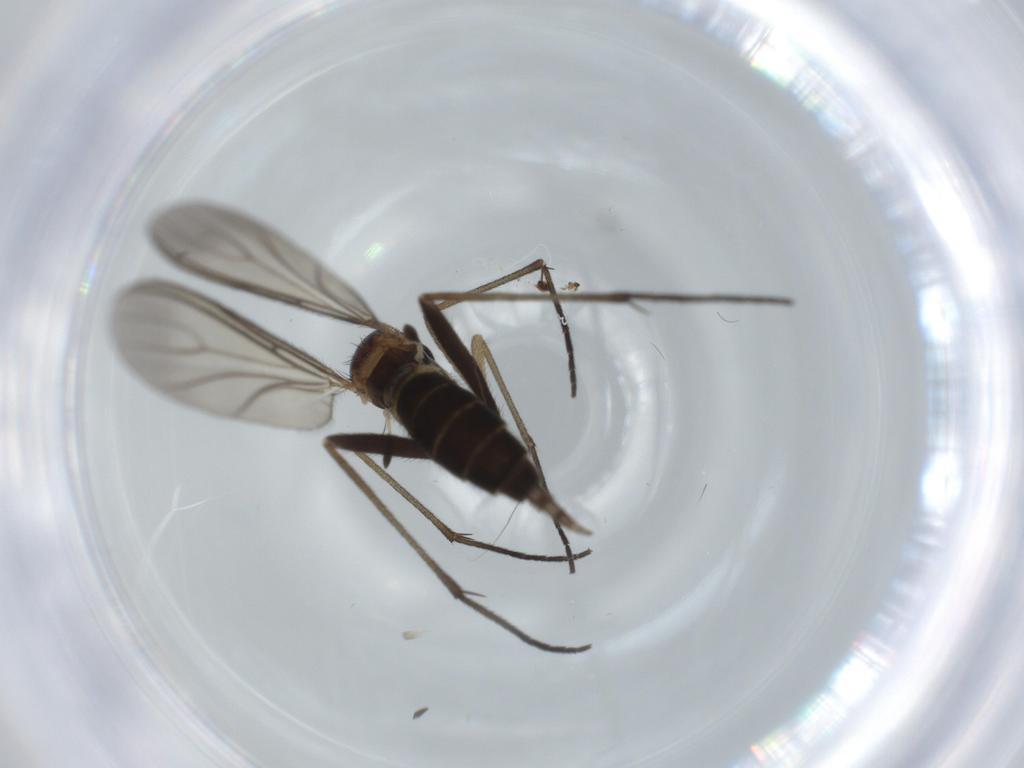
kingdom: Animalia
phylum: Arthropoda
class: Insecta
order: Diptera
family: Sciaridae
